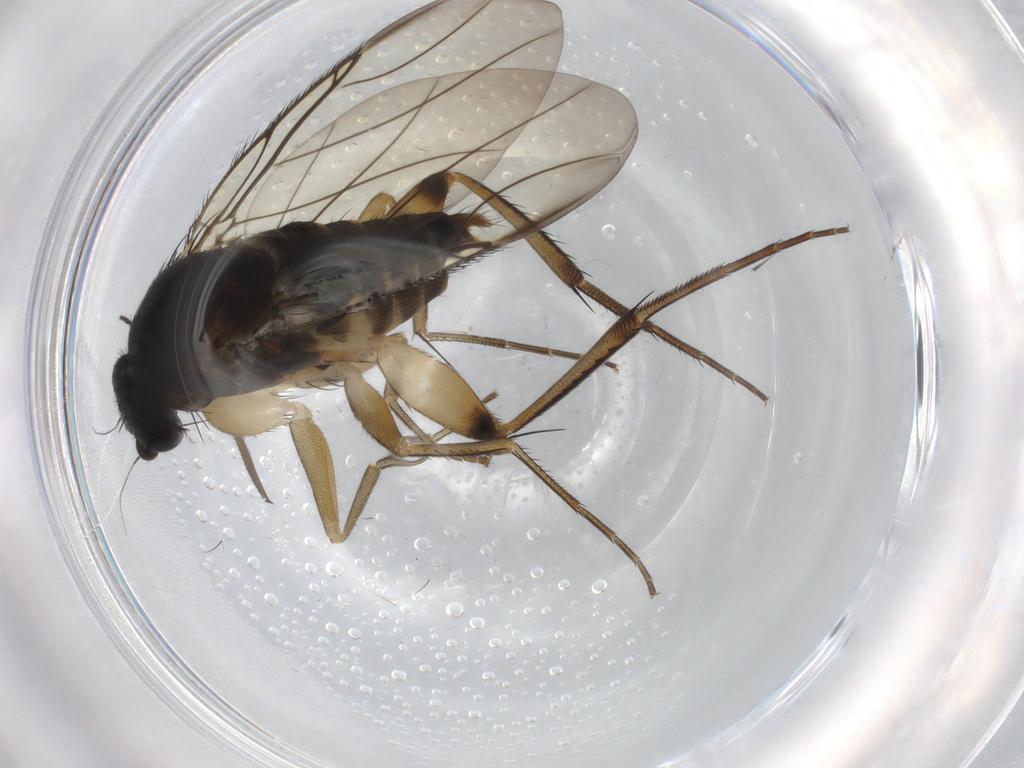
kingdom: Animalia
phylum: Arthropoda
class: Insecta
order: Diptera
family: Phoridae
